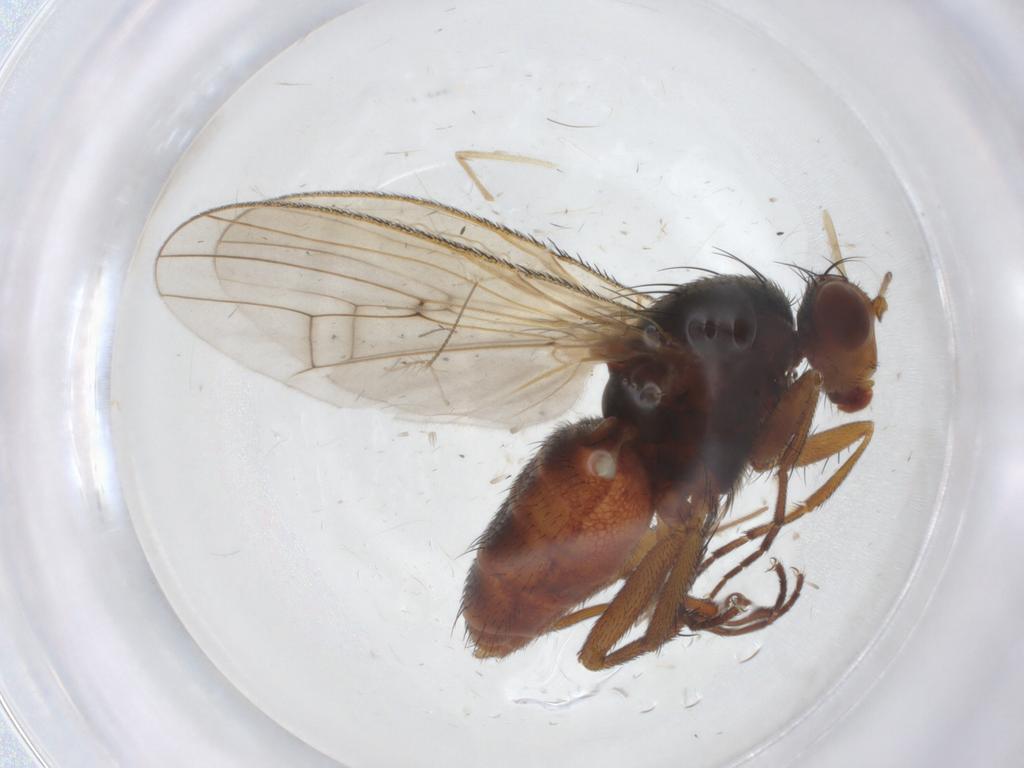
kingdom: Animalia
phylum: Arthropoda
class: Insecta
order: Diptera
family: Heleomyzidae
